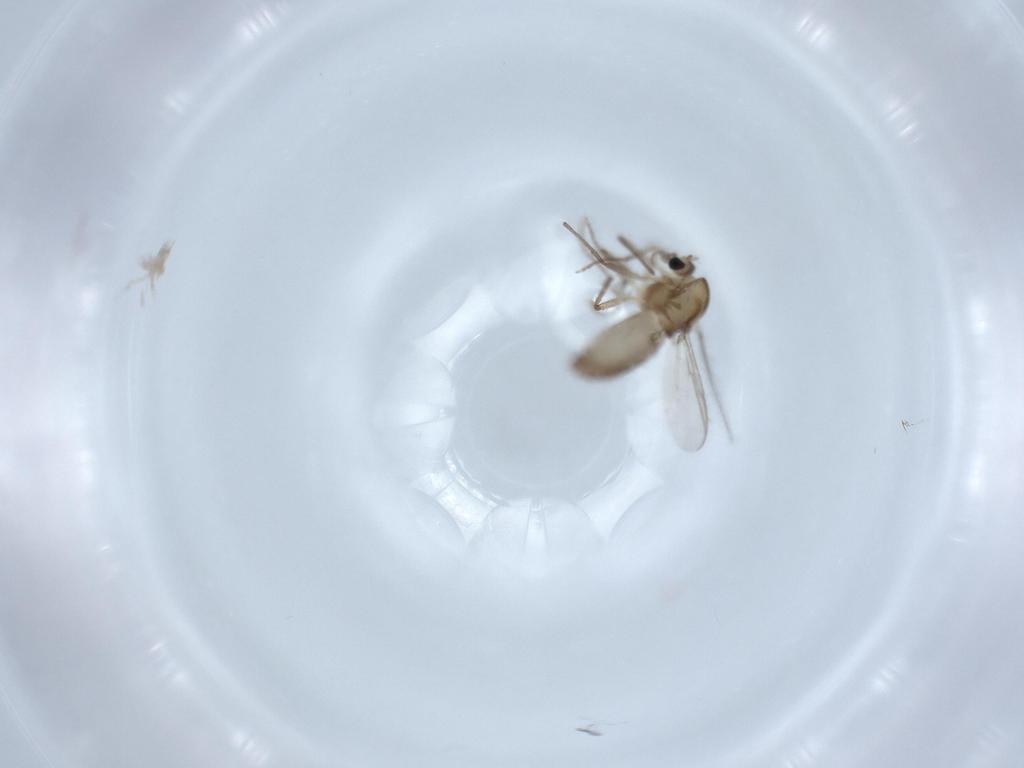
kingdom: Animalia
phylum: Arthropoda
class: Insecta
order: Diptera
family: Chironomidae
